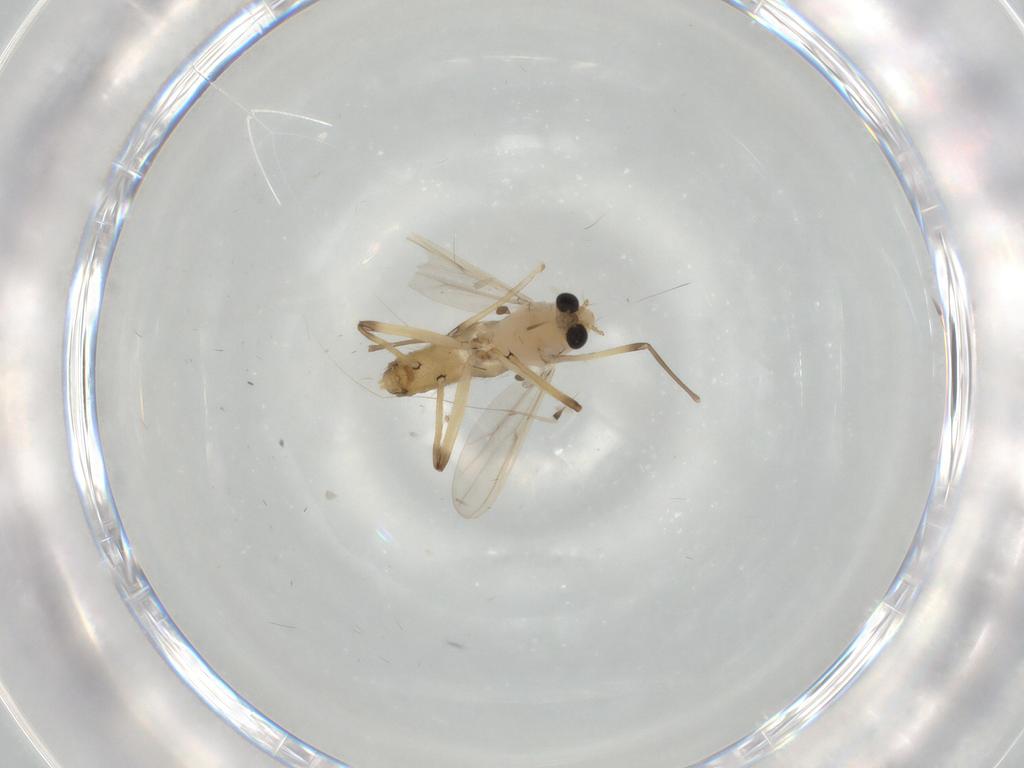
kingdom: Animalia
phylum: Arthropoda
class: Insecta
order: Diptera
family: Chironomidae
